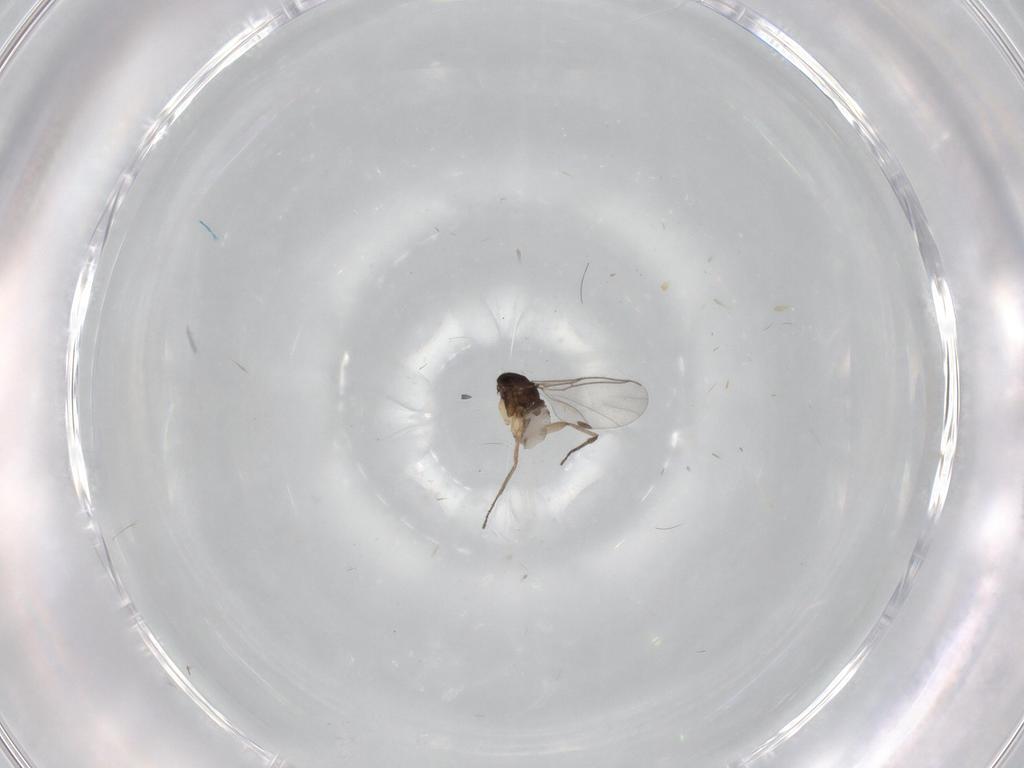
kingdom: Animalia
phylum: Arthropoda
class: Insecta
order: Diptera
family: Sciaridae
